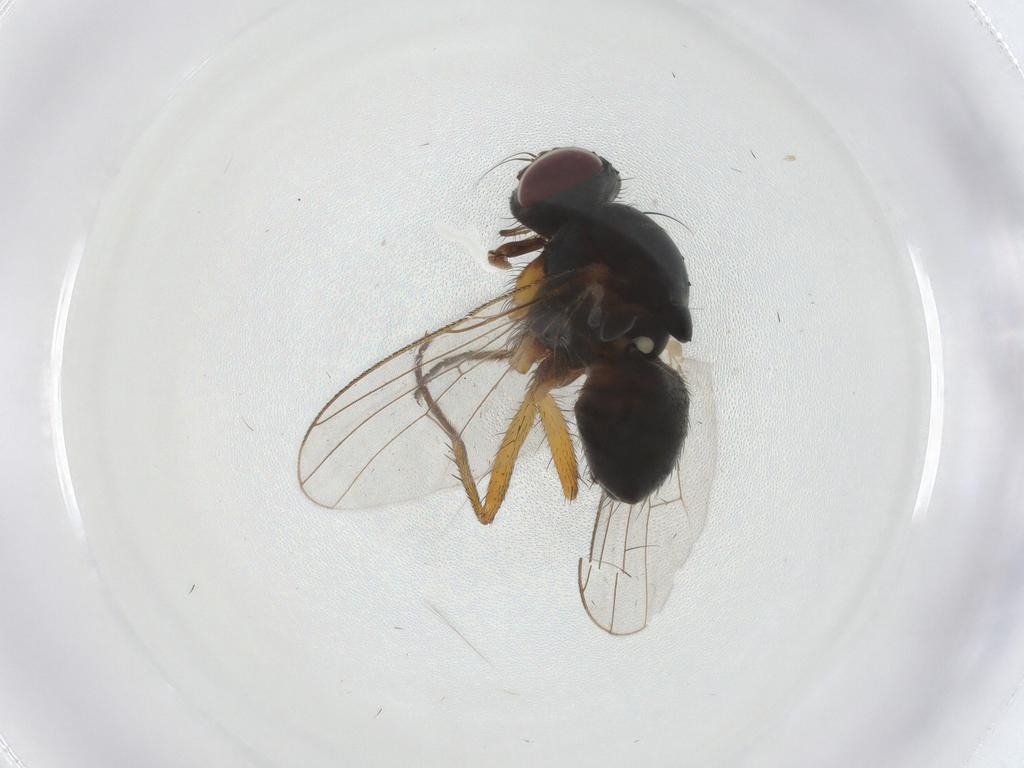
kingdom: Animalia
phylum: Arthropoda
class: Insecta
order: Diptera
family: Muscidae
